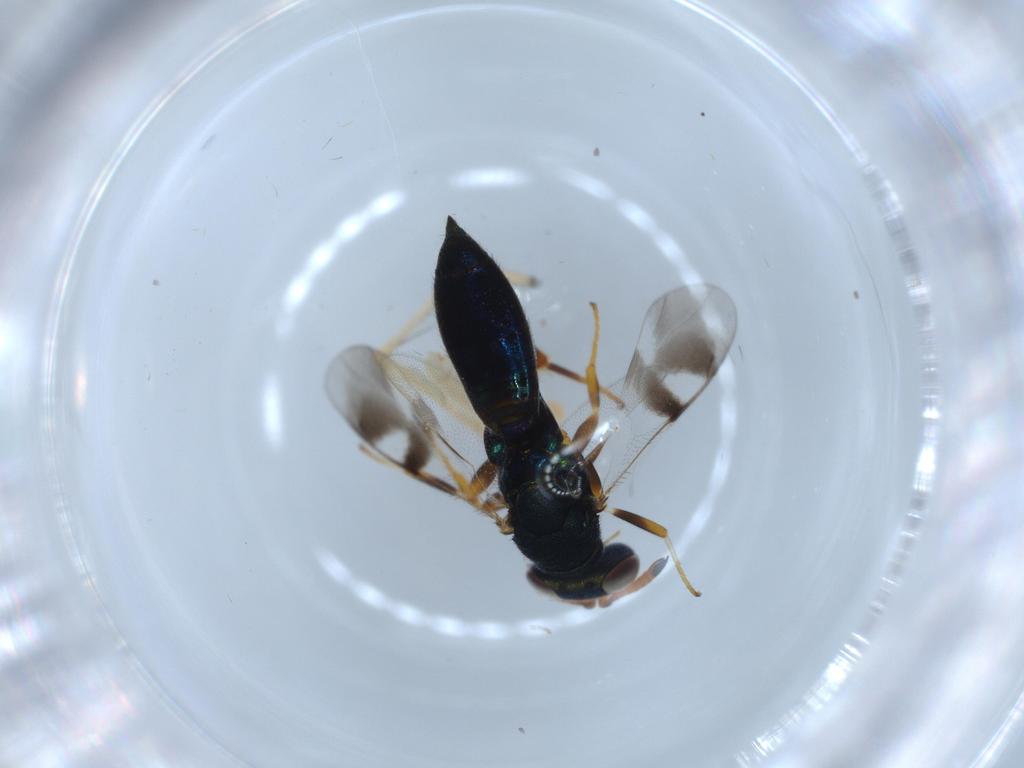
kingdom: Animalia
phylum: Arthropoda
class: Insecta
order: Hymenoptera
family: Cleonyminae
